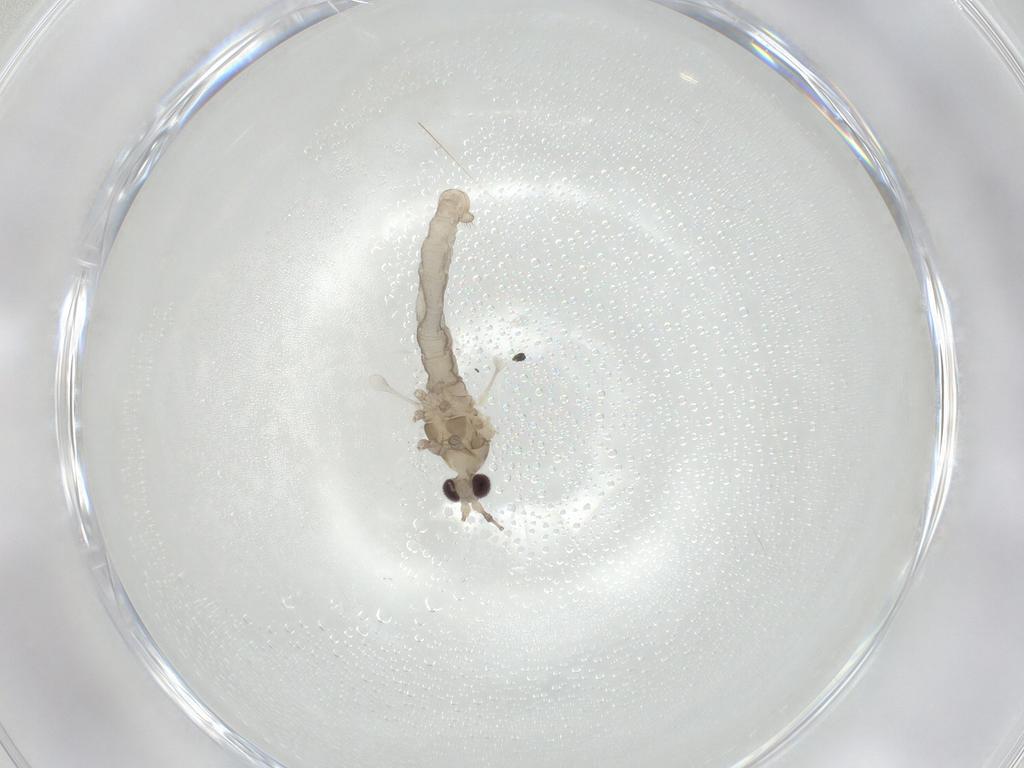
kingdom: Animalia
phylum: Arthropoda
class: Insecta
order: Diptera
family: Cecidomyiidae
